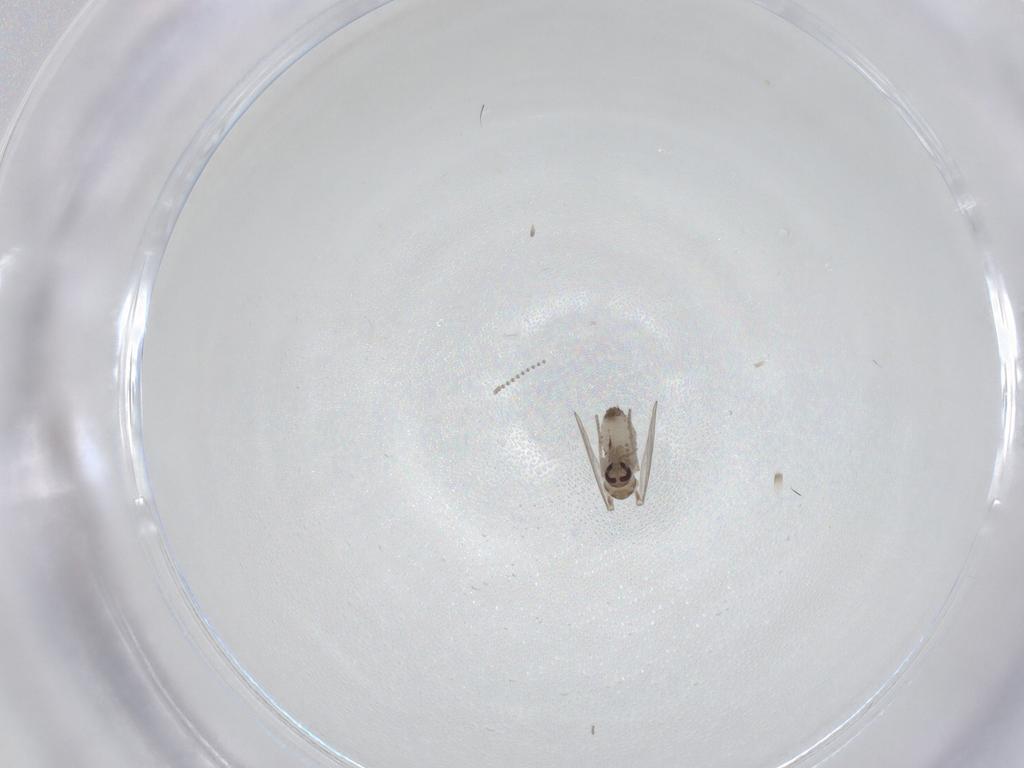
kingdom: Animalia
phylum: Arthropoda
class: Insecta
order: Diptera
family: Psychodidae
